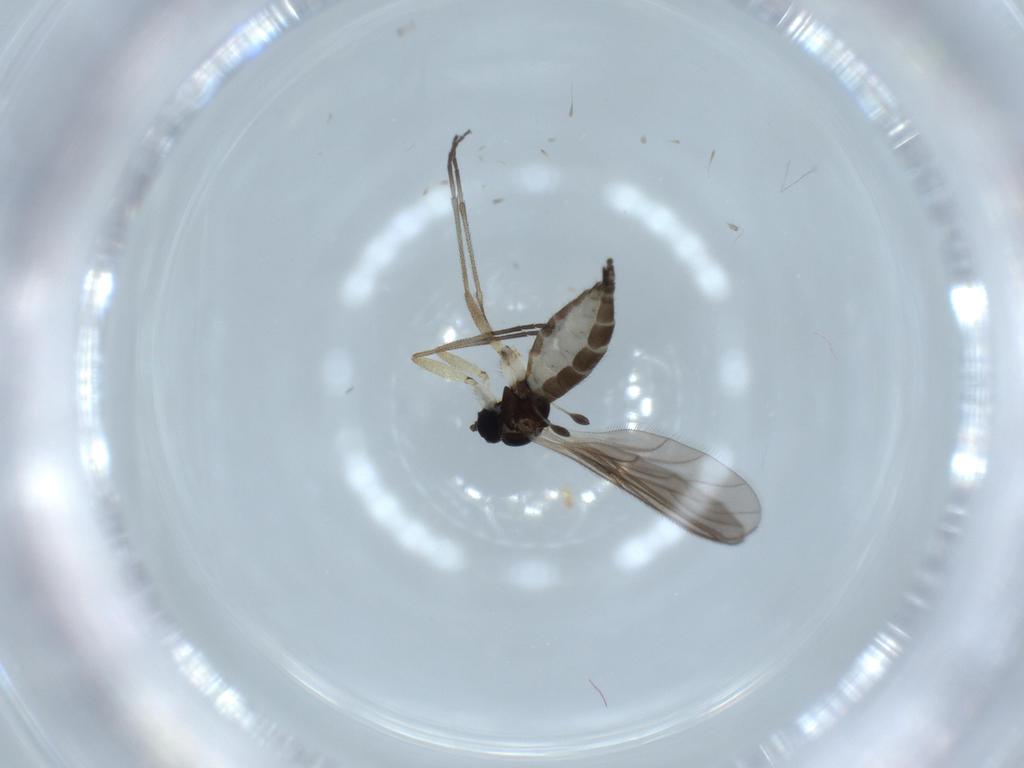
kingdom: Animalia
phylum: Arthropoda
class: Insecta
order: Diptera
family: Sciaridae
